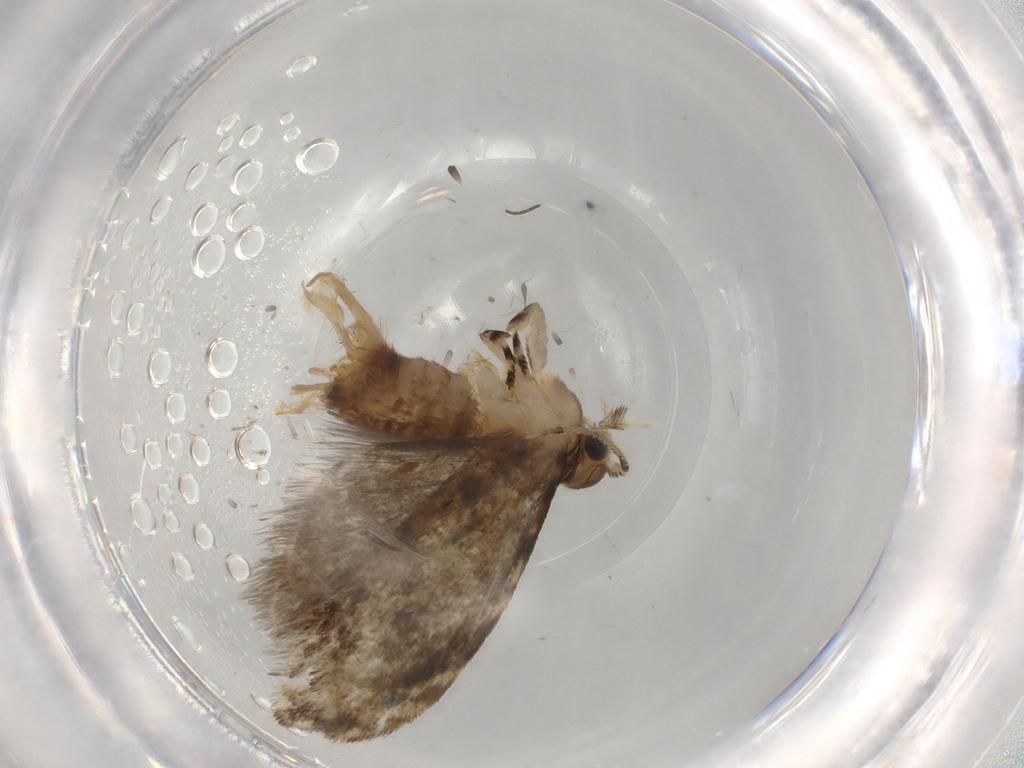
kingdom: Animalia
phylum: Arthropoda
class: Insecta
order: Lepidoptera
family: Tineidae
